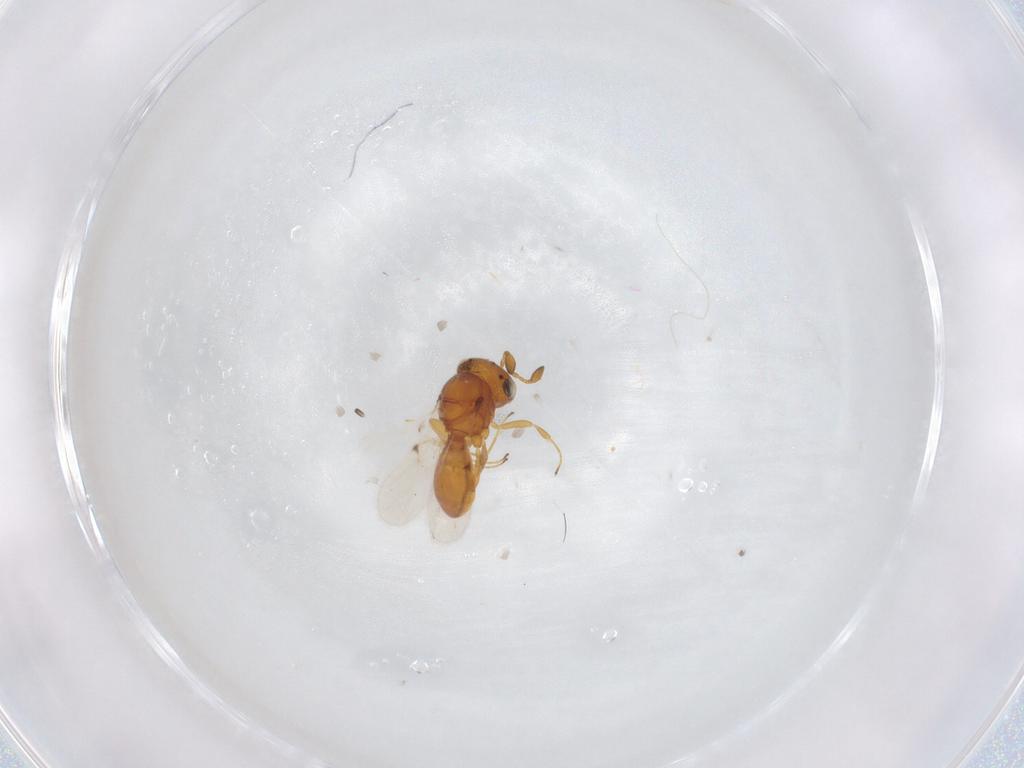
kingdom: Animalia
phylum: Arthropoda
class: Insecta
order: Hymenoptera
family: Scelionidae
